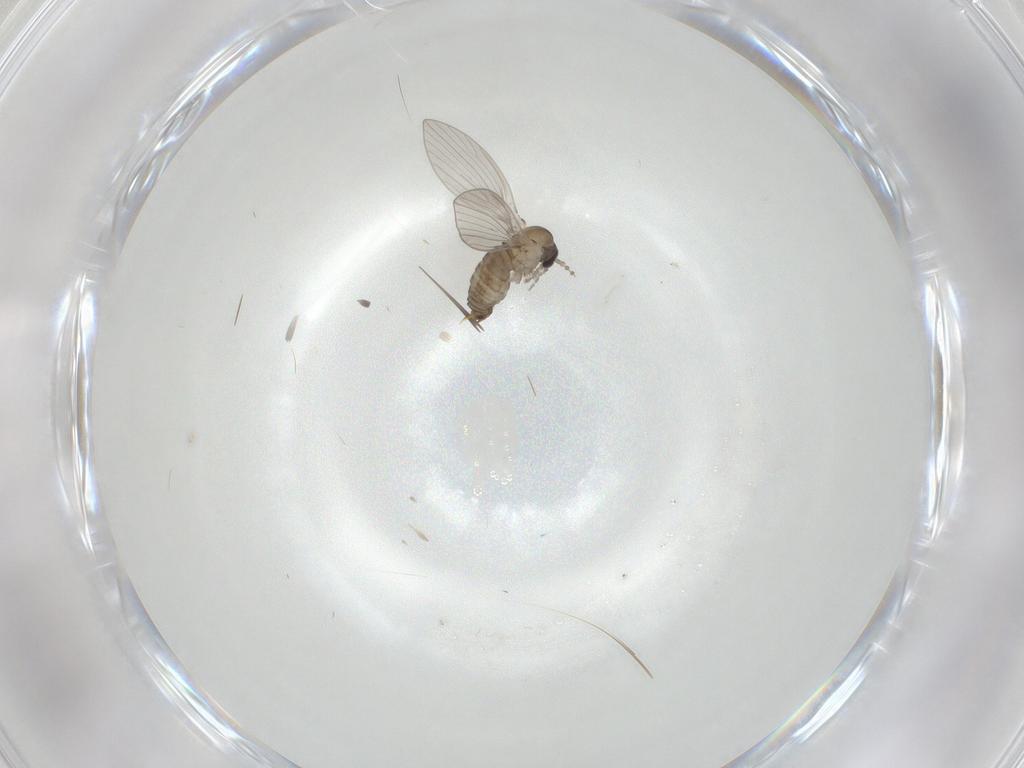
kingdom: Animalia
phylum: Arthropoda
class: Insecta
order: Diptera
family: Psychodidae
